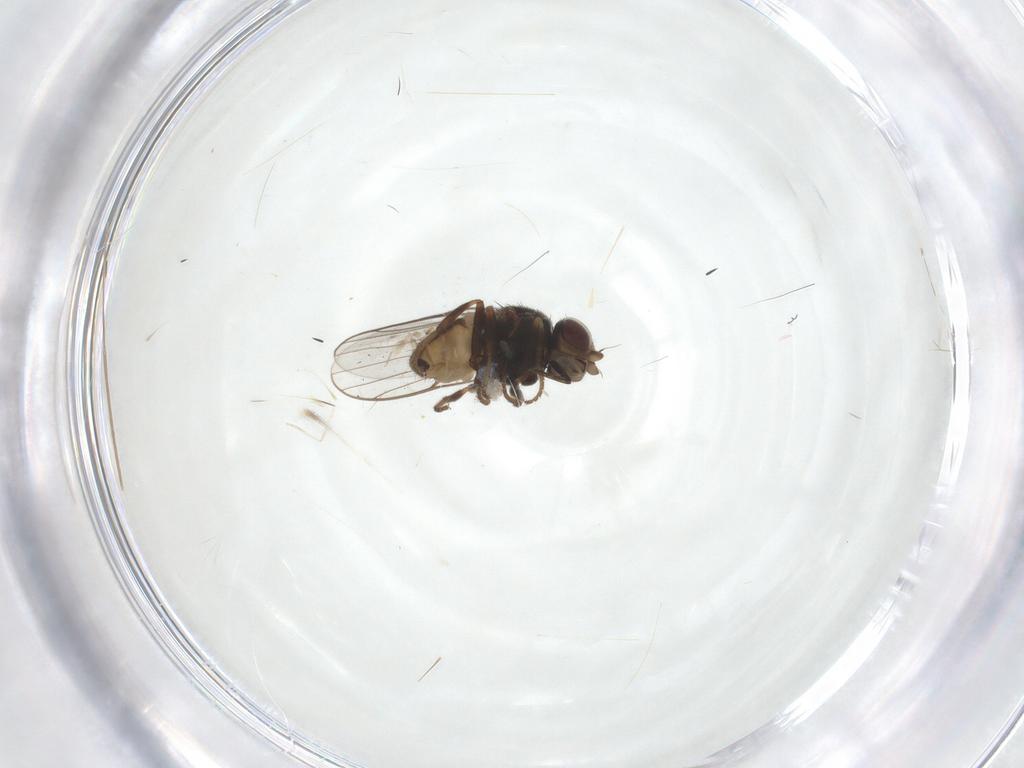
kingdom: Animalia
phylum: Arthropoda
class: Insecta
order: Diptera
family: Chloropidae
